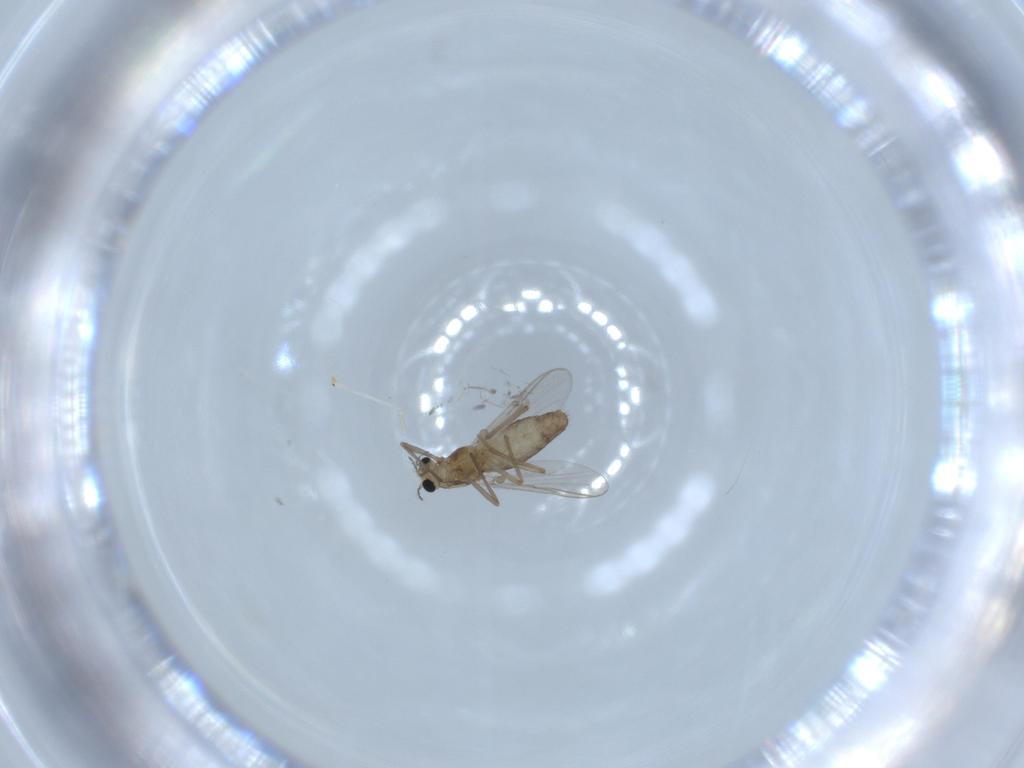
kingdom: Animalia
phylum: Arthropoda
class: Insecta
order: Diptera
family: Chironomidae
